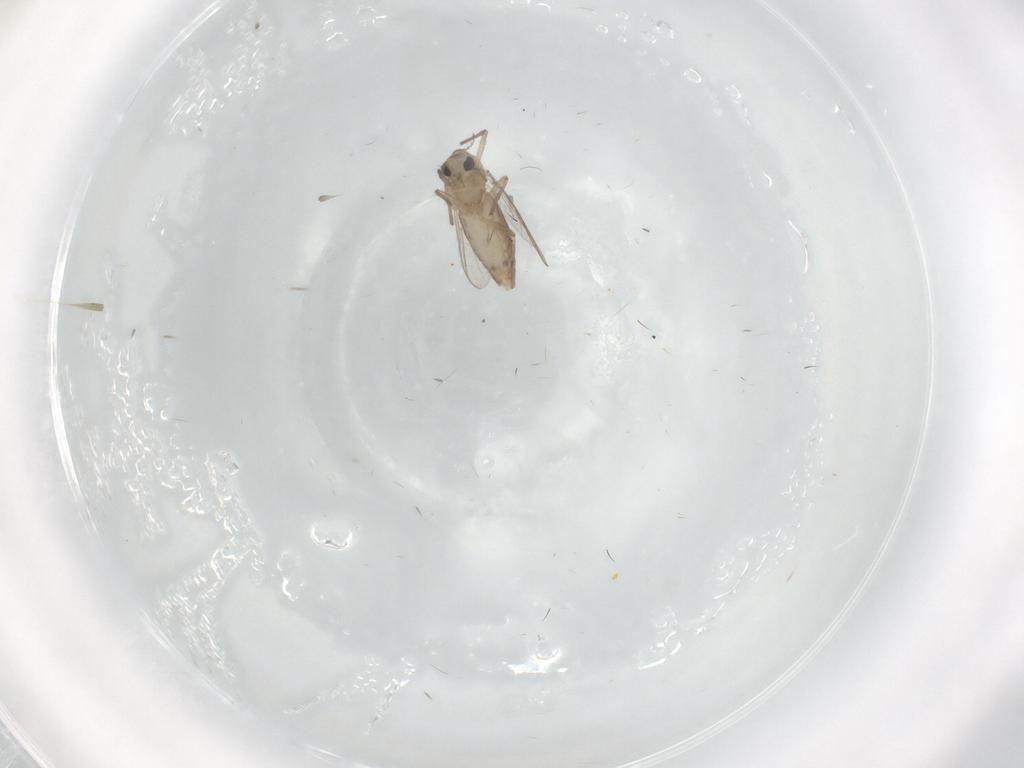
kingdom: Animalia
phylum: Arthropoda
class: Insecta
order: Diptera
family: Chironomidae
